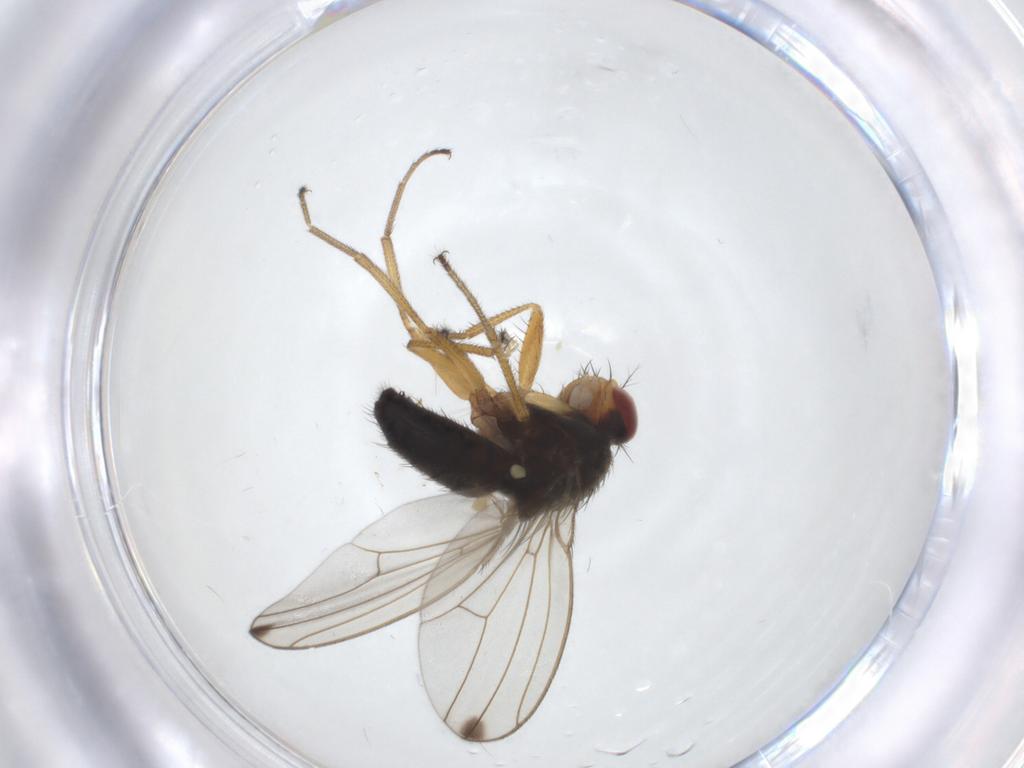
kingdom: Animalia
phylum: Arthropoda
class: Insecta
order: Diptera
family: Drosophilidae
